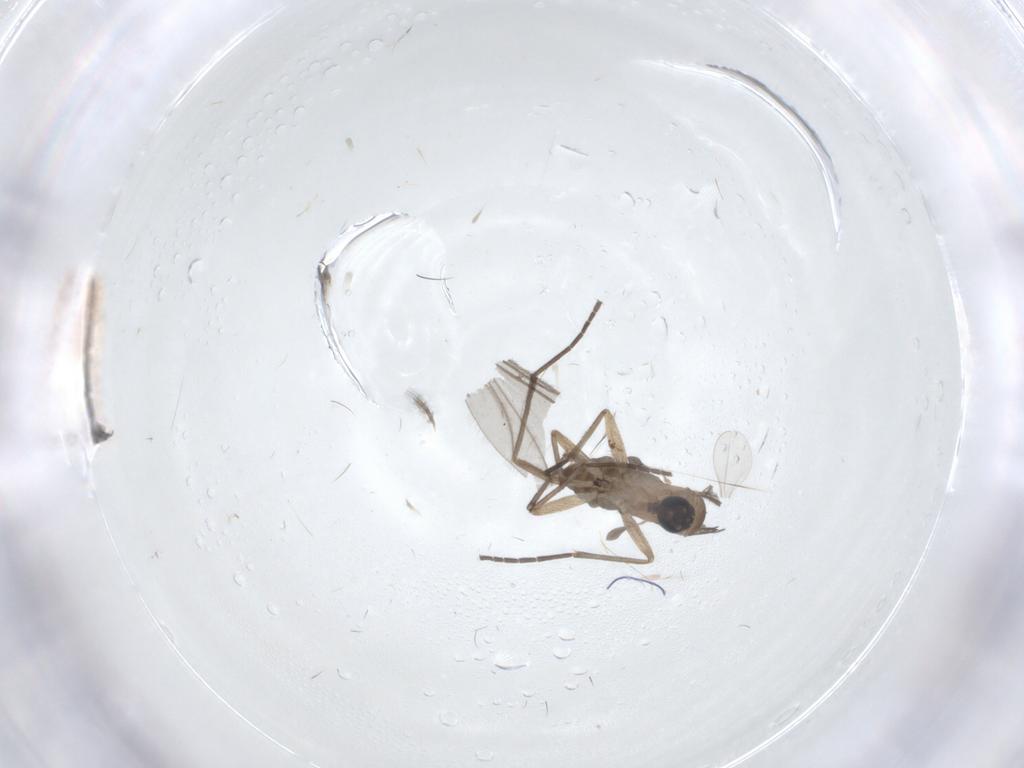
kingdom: Animalia
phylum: Arthropoda
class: Insecta
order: Diptera
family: Sciaridae
